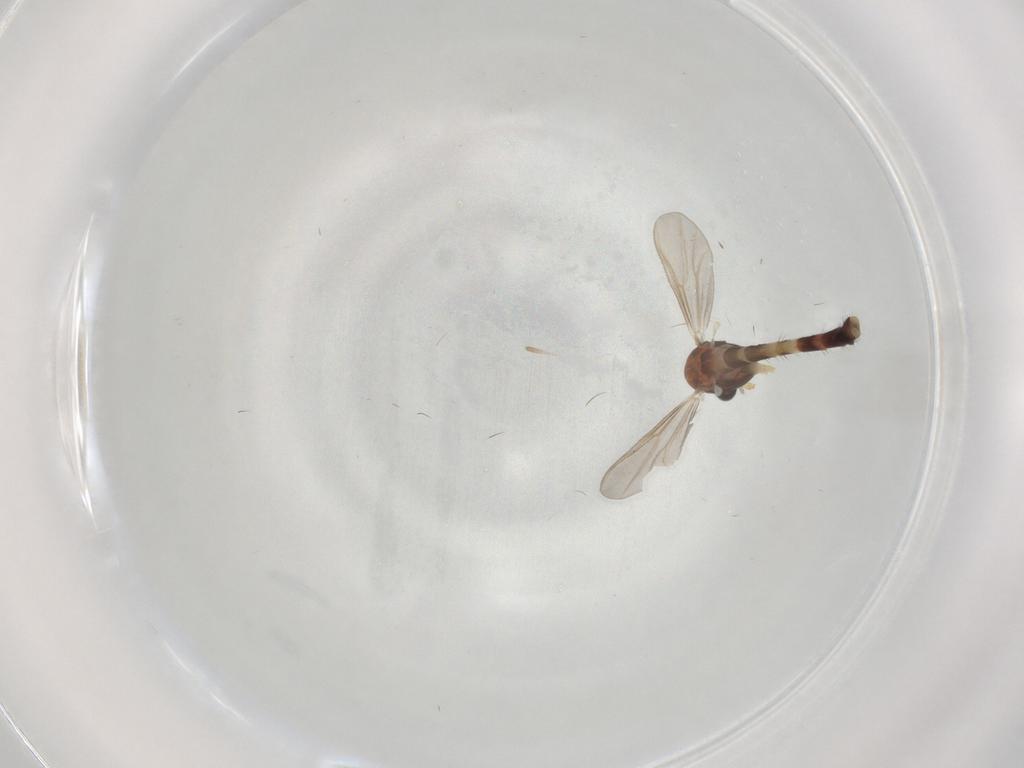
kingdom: Animalia
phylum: Arthropoda
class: Insecta
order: Diptera
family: Chironomidae
